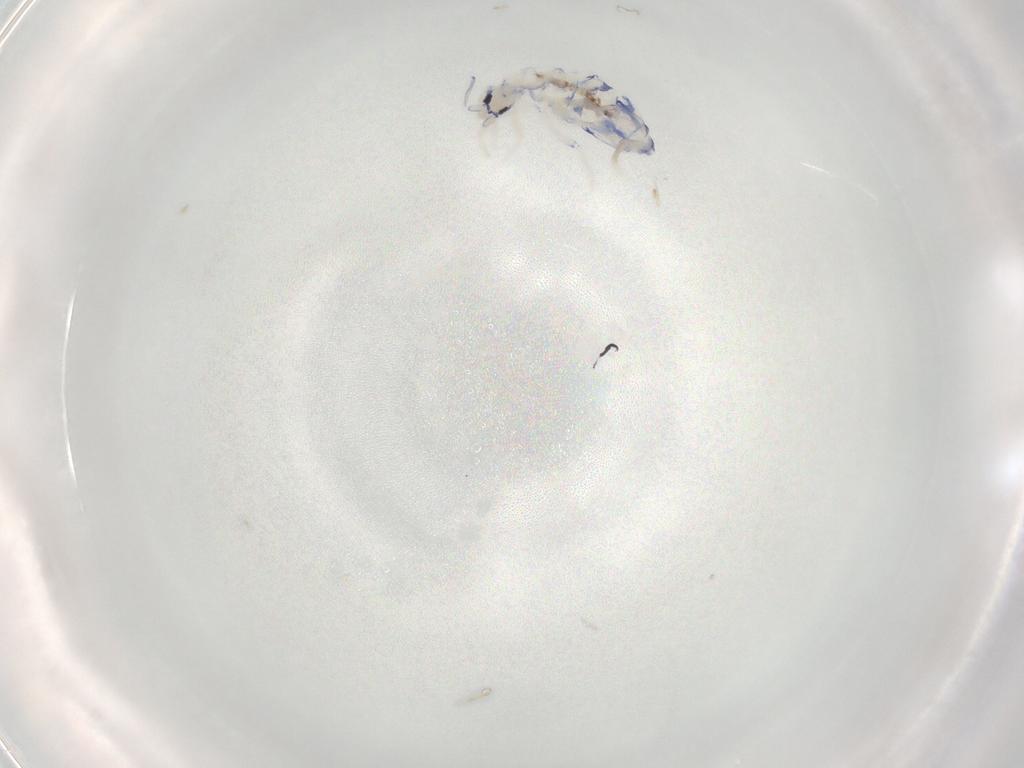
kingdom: Animalia
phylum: Arthropoda
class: Collembola
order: Entomobryomorpha
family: Entomobryidae
